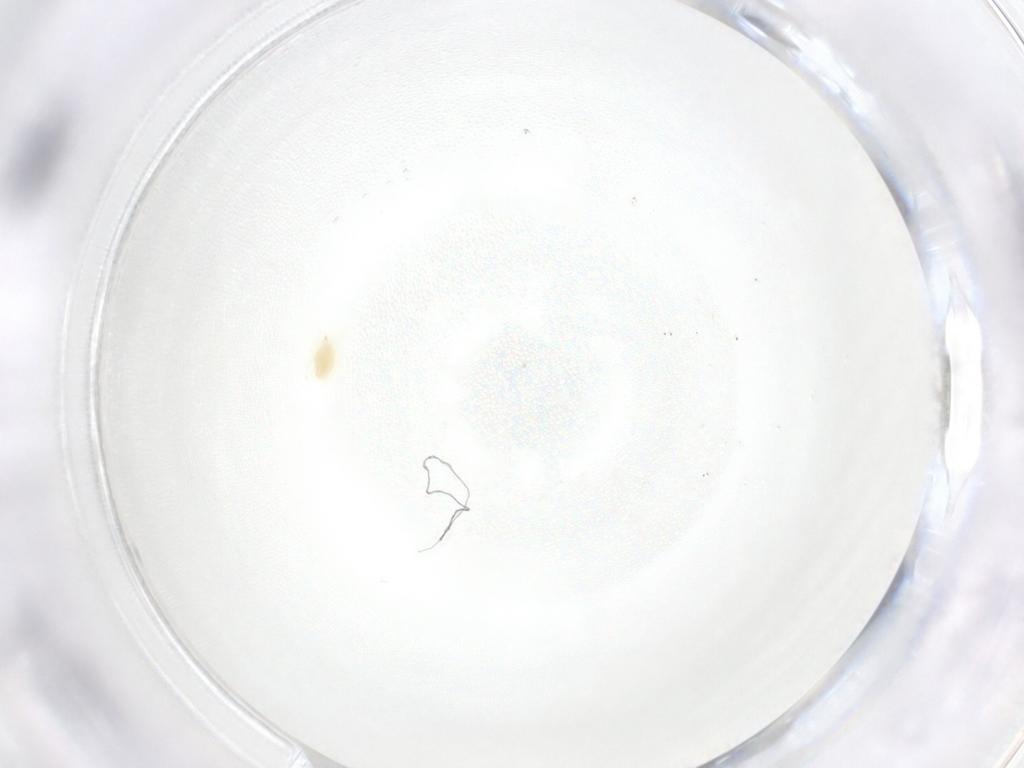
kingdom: Animalia
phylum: Arthropoda
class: Arachnida
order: Trombidiformes
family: Tetranychidae
